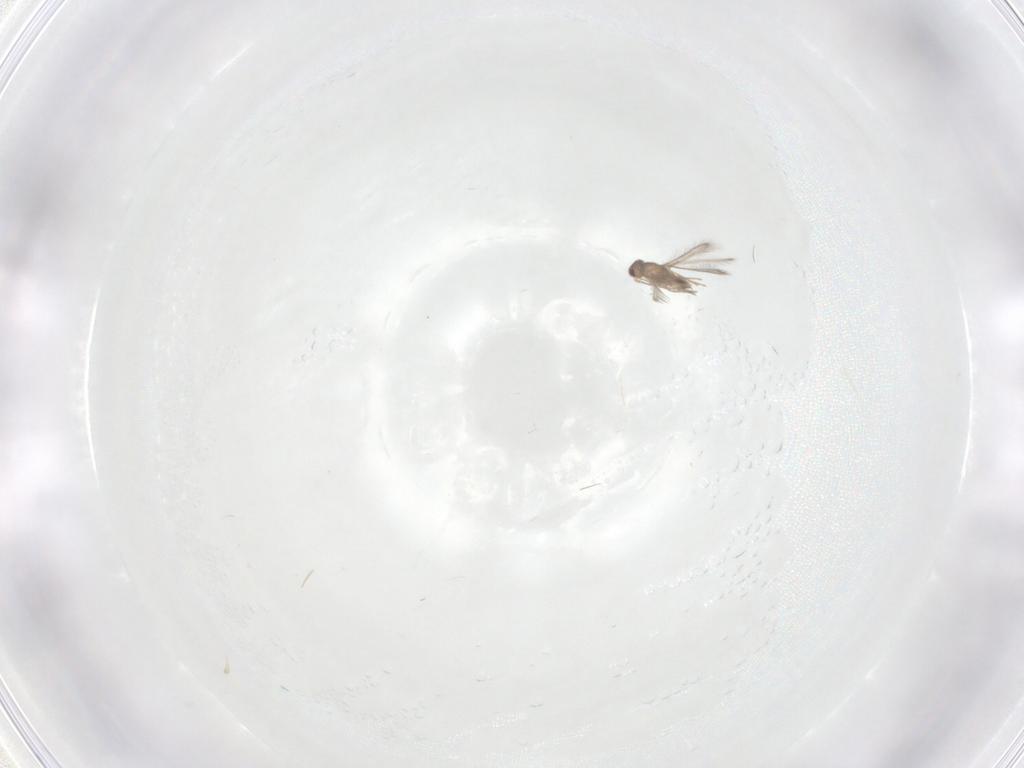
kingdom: Animalia
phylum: Arthropoda
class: Insecta
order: Hymenoptera
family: Mymaridae
